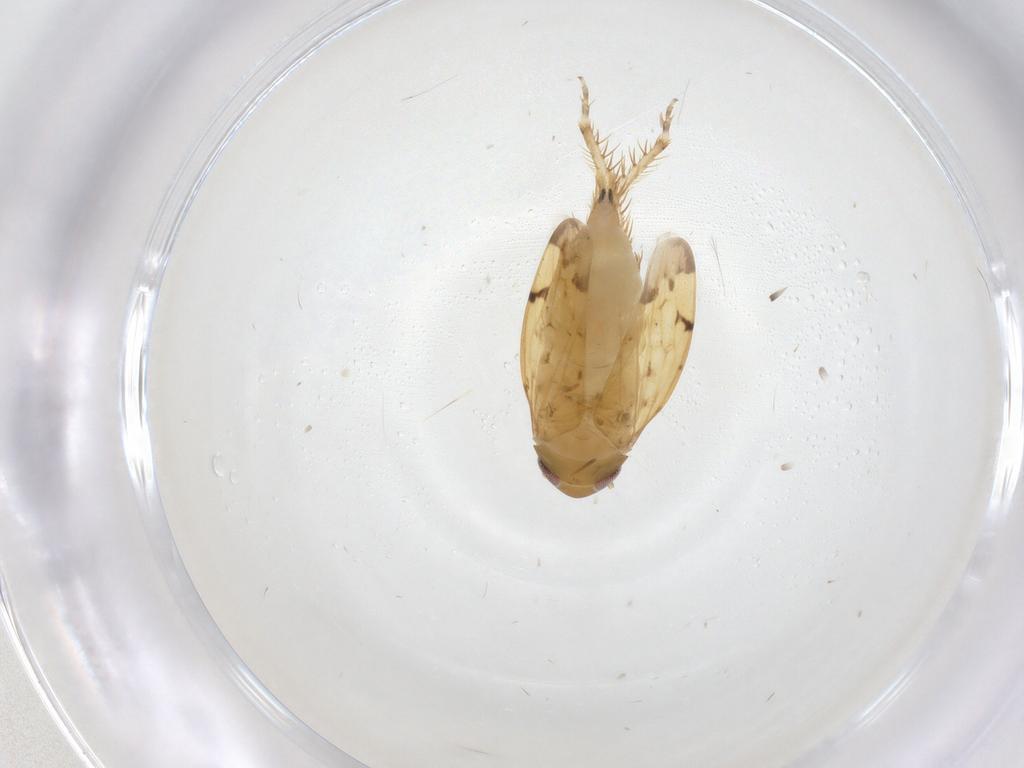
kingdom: Animalia
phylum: Arthropoda
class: Insecta
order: Hemiptera
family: Cicadellidae
